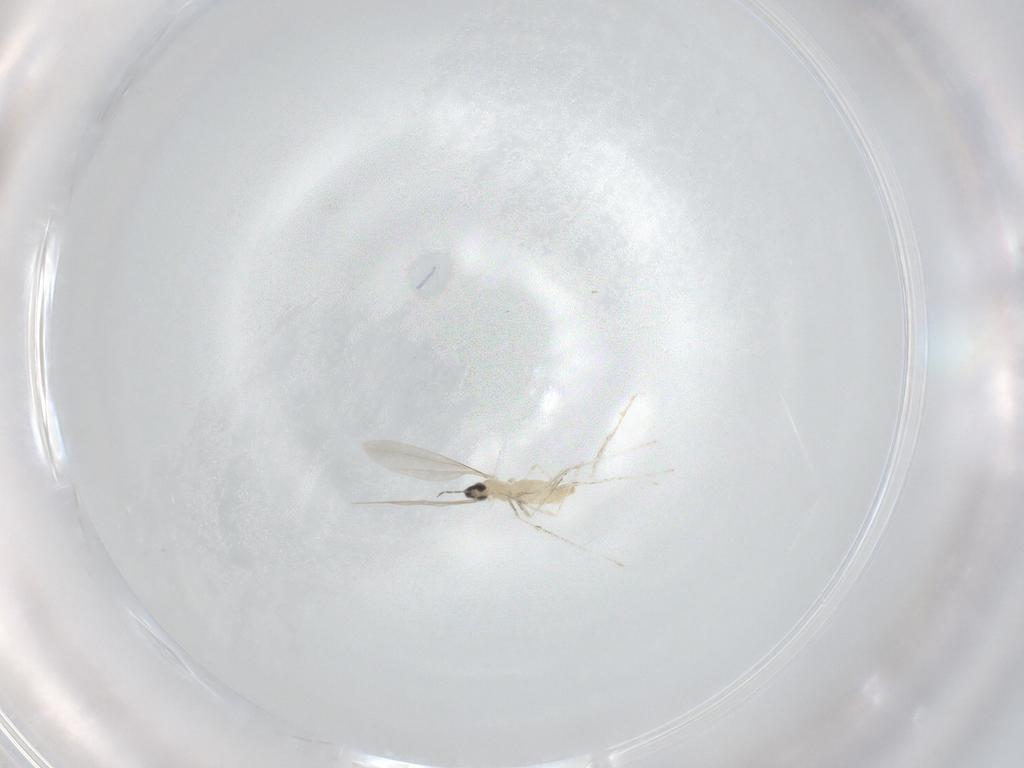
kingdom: Animalia
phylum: Arthropoda
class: Insecta
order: Diptera
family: Cecidomyiidae
